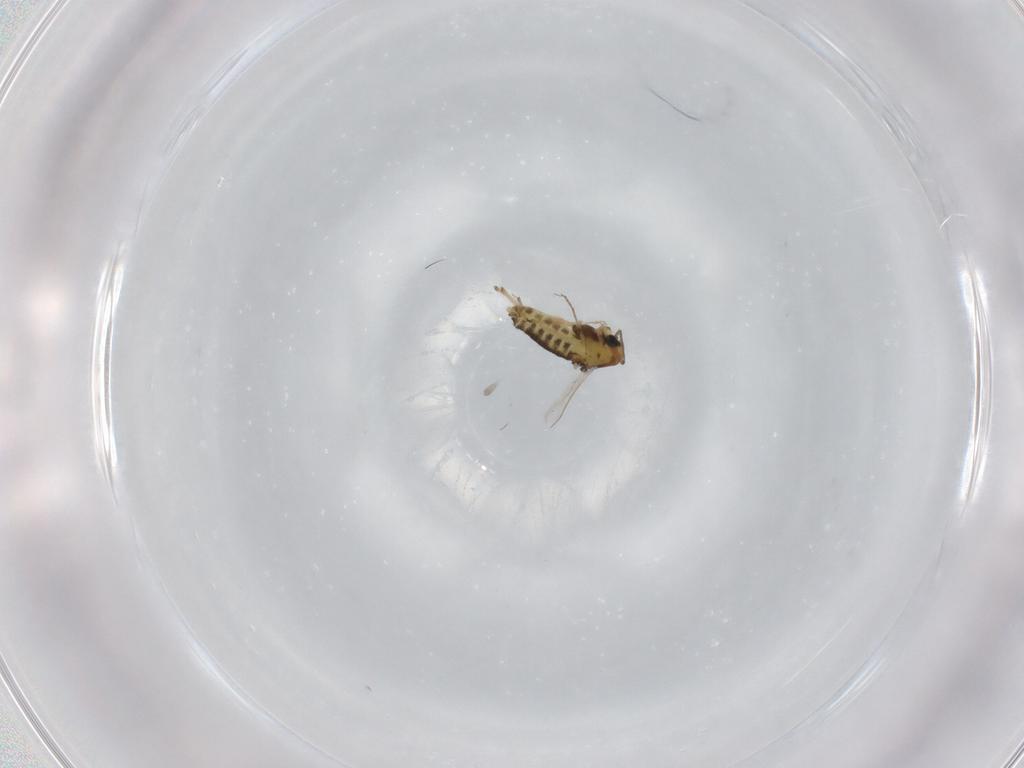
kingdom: Animalia
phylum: Arthropoda
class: Insecta
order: Diptera
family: Chironomidae
